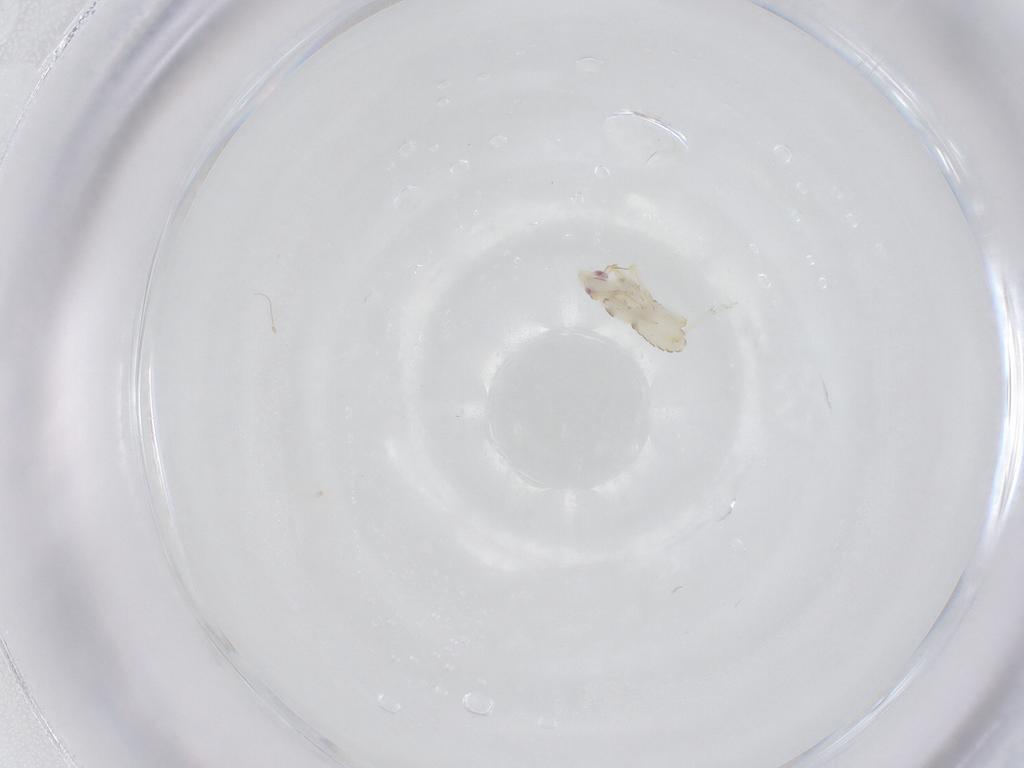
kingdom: Animalia
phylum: Arthropoda
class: Insecta
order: Hemiptera
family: Delphacidae
